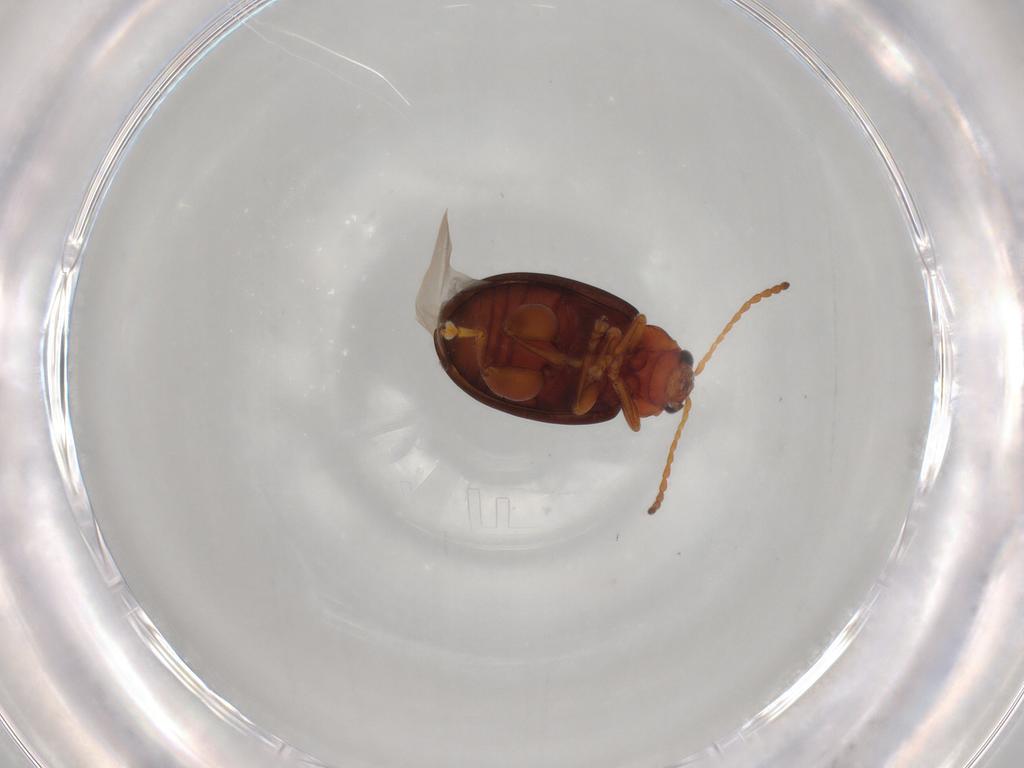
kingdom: Animalia
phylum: Arthropoda
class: Insecta
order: Coleoptera
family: Chrysomelidae
